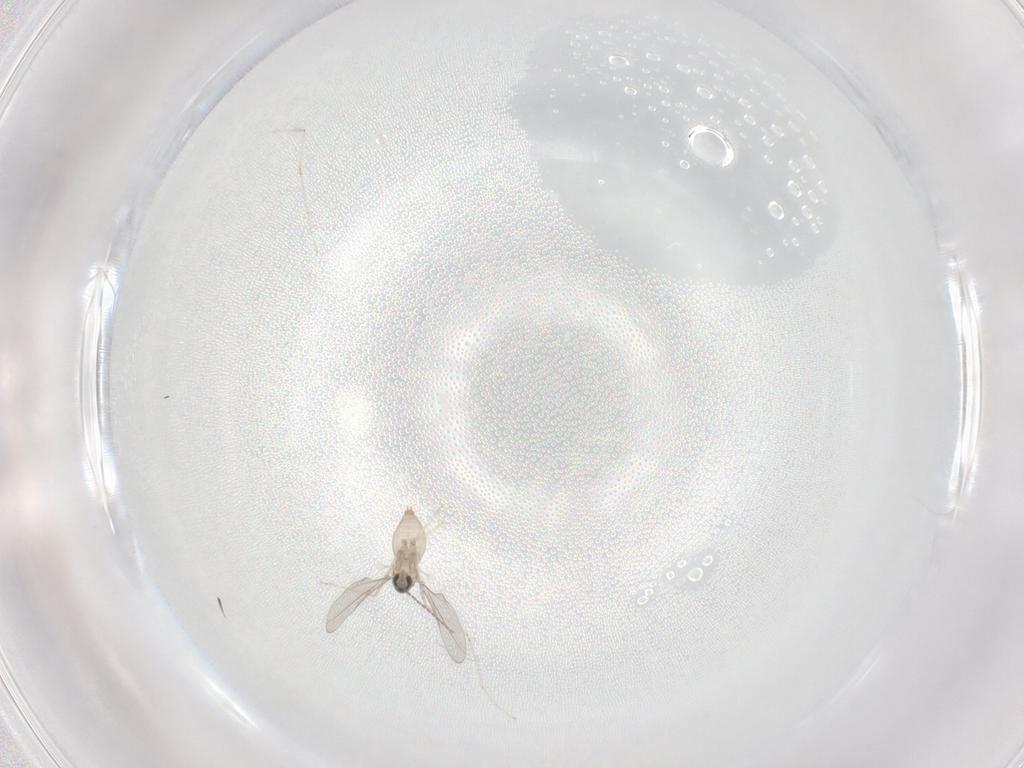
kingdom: Animalia
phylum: Arthropoda
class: Insecta
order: Diptera
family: Cecidomyiidae
